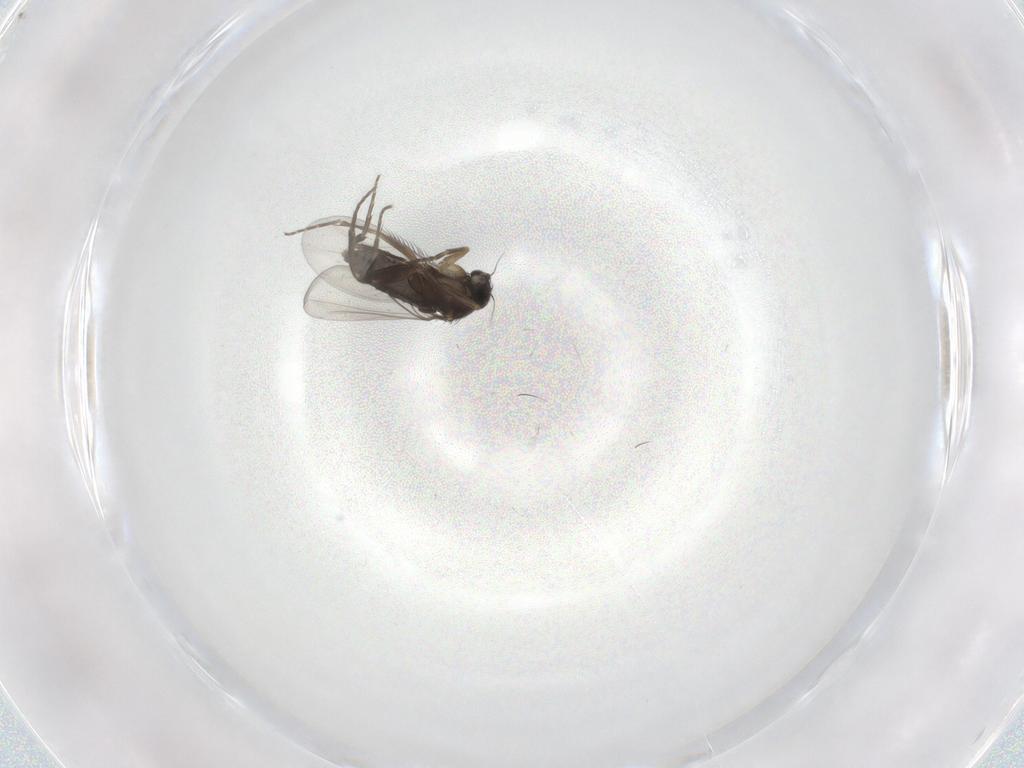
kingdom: Animalia
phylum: Arthropoda
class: Insecta
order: Diptera
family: Phoridae
